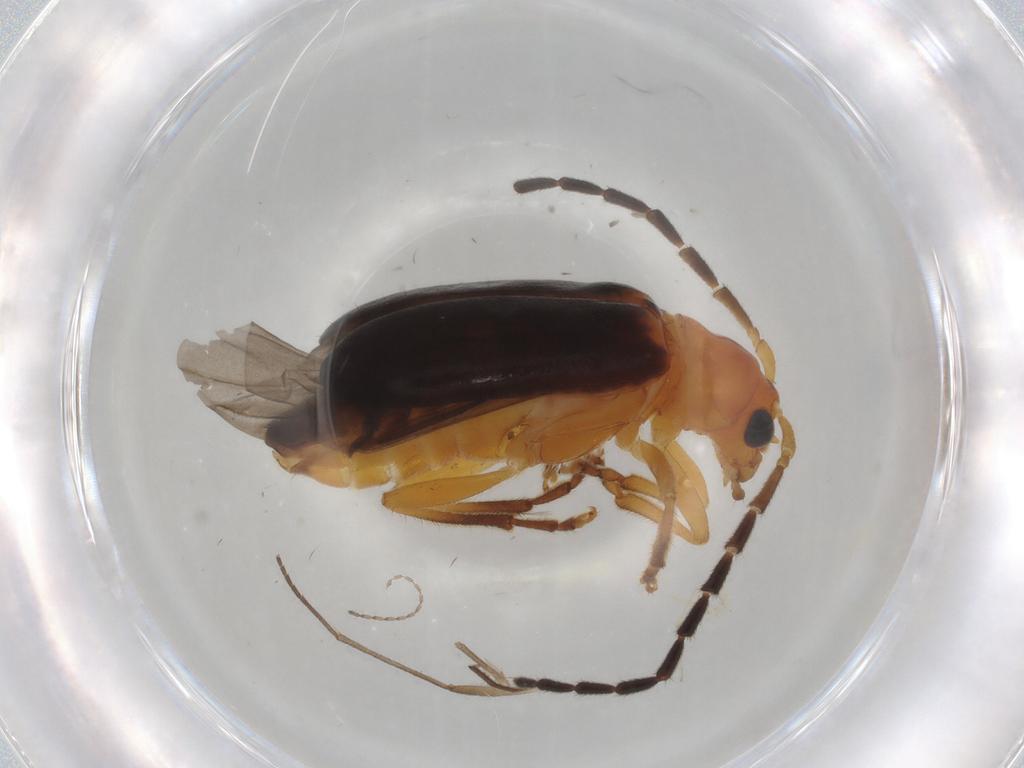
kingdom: Animalia
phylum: Arthropoda
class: Insecta
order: Coleoptera
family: Chrysomelidae
